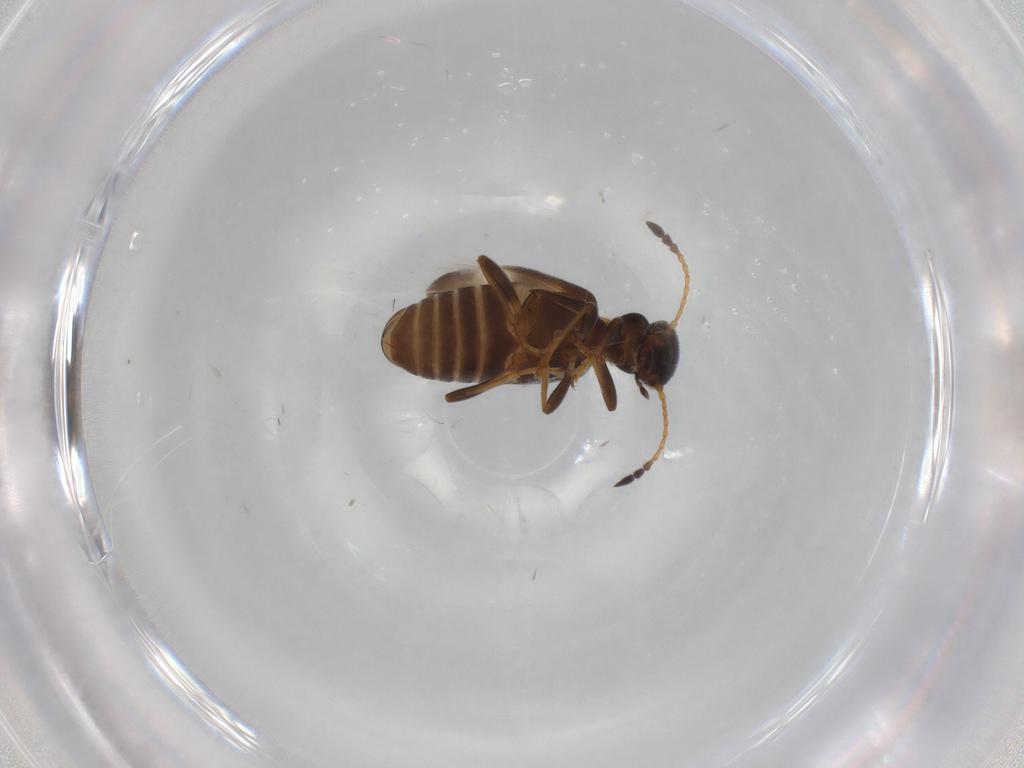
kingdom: Animalia
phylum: Arthropoda
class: Insecta
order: Coleoptera
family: Anthicidae
